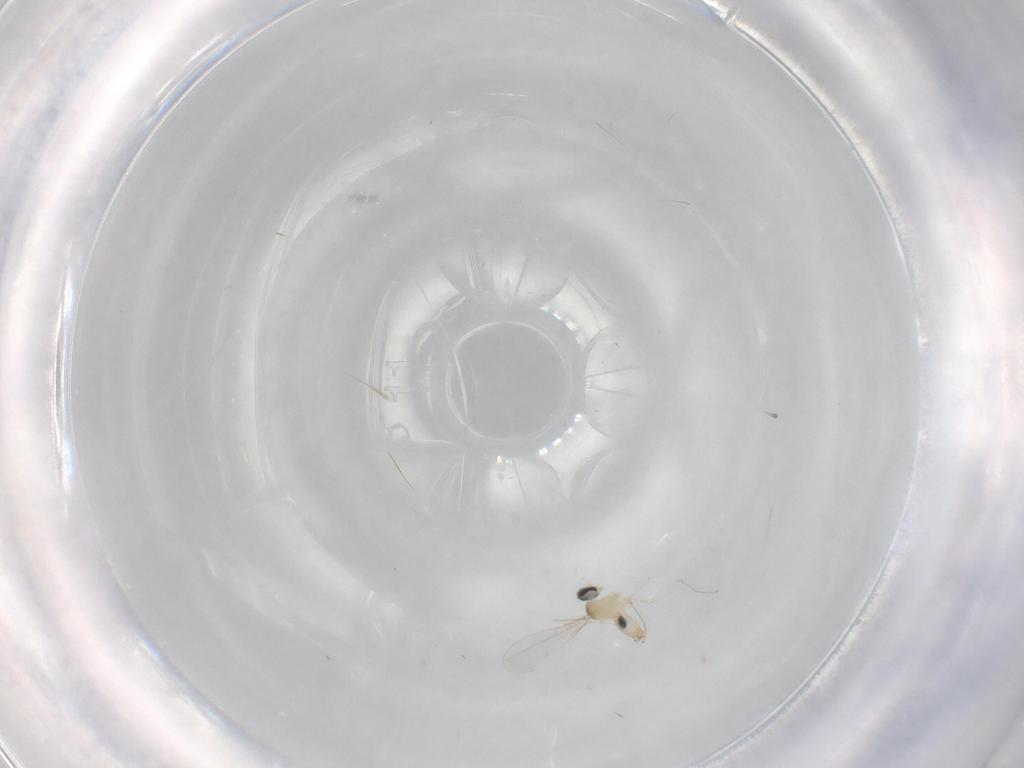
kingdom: Animalia
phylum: Arthropoda
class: Insecta
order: Diptera
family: Cecidomyiidae
